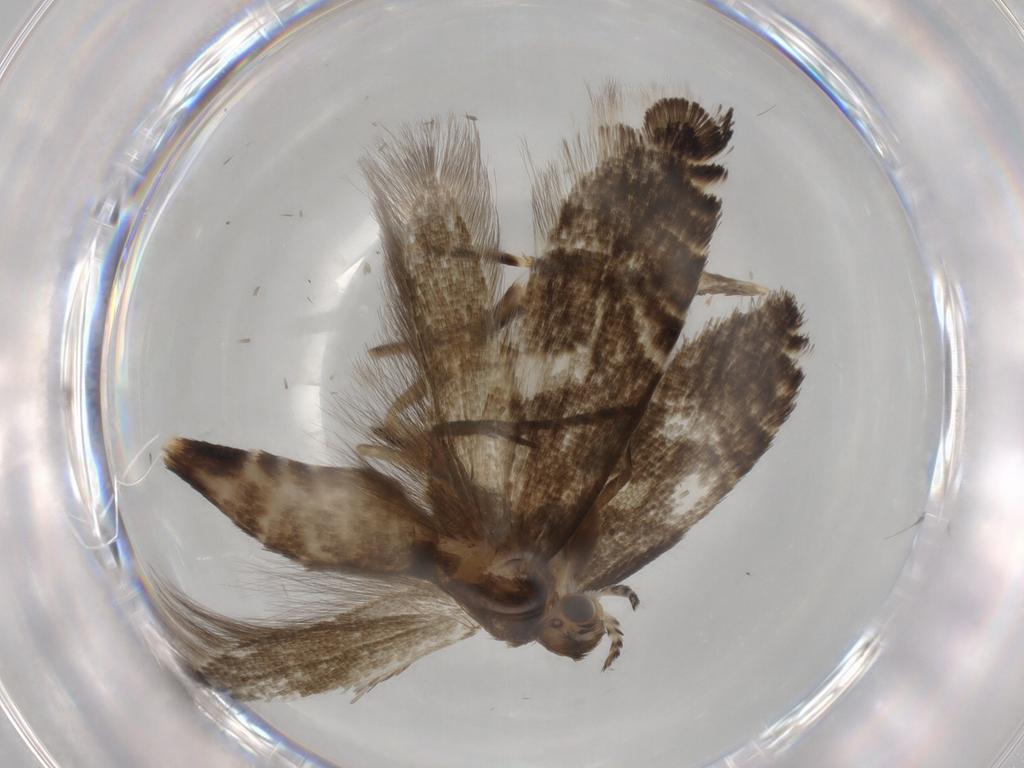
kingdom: Animalia
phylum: Arthropoda
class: Insecta
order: Lepidoptera
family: Glyphipterigidae
